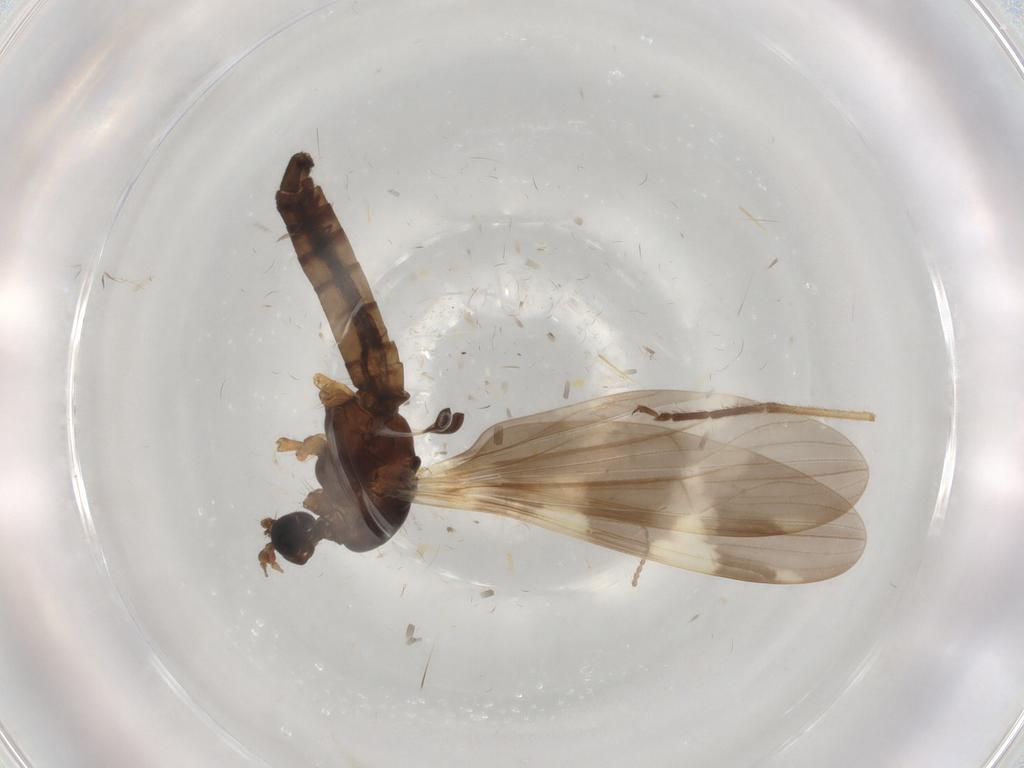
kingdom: Animalia
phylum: Arthropoda
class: Insecta
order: Diptera
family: Chironomidae
